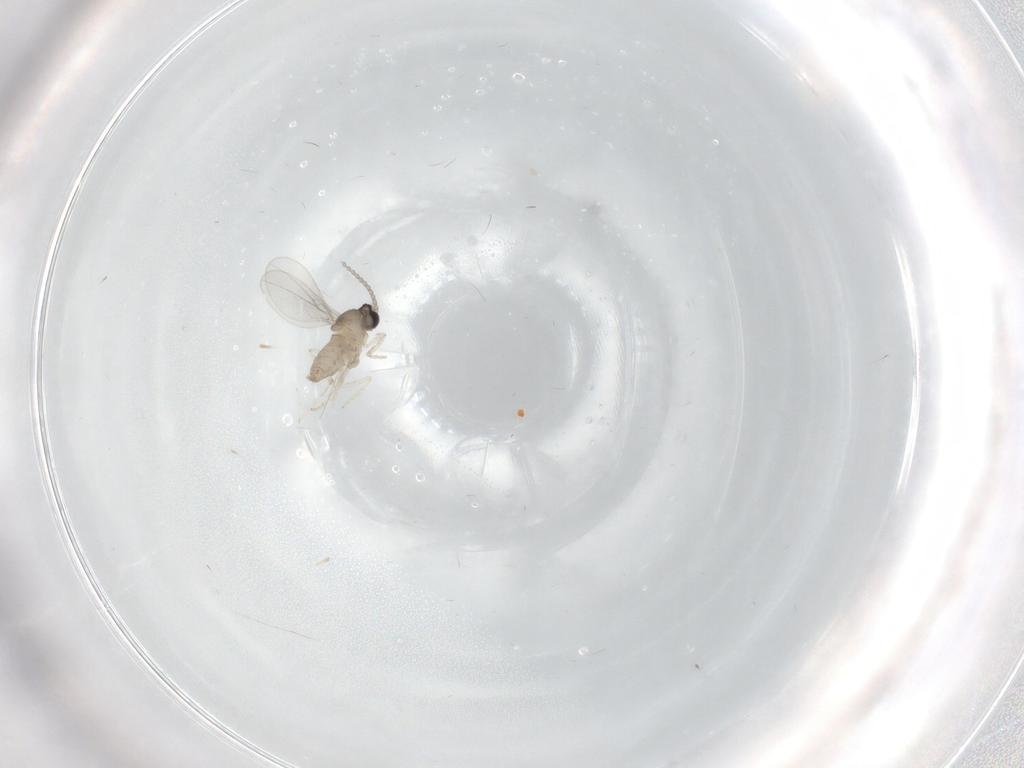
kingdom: Animalia
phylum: Arthropoda
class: Insecta
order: Diptera
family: Cecidomyiidae
